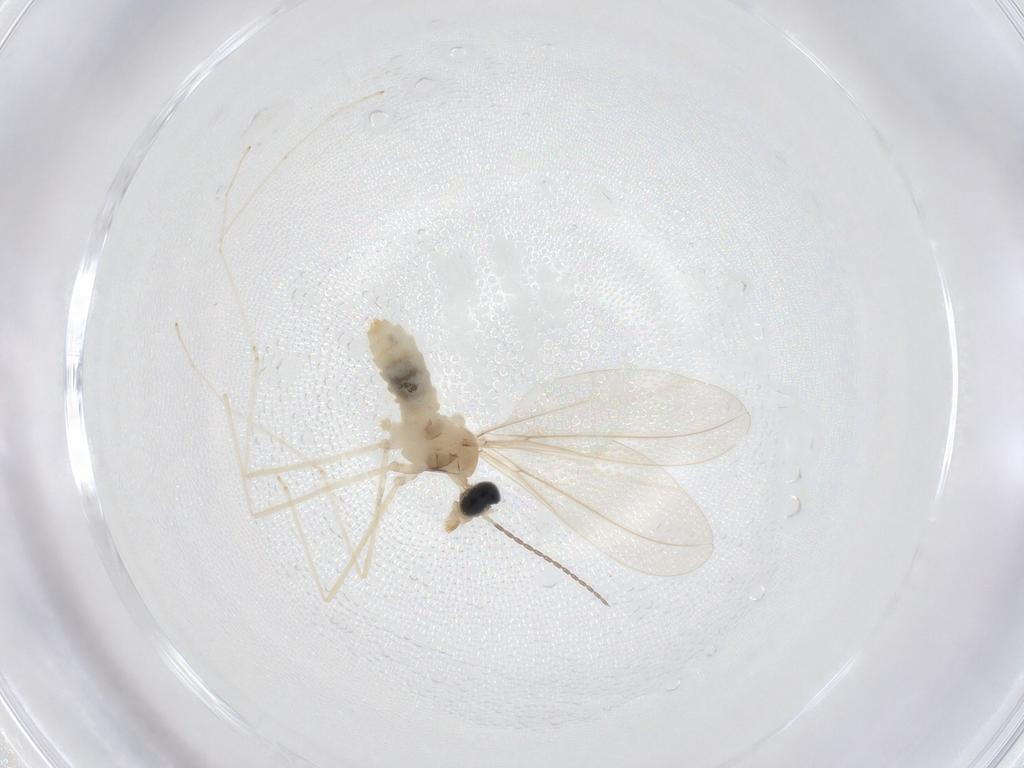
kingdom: Animalia
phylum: Arthropoda
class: Insecta
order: Diptera
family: Cecidomyiidae
